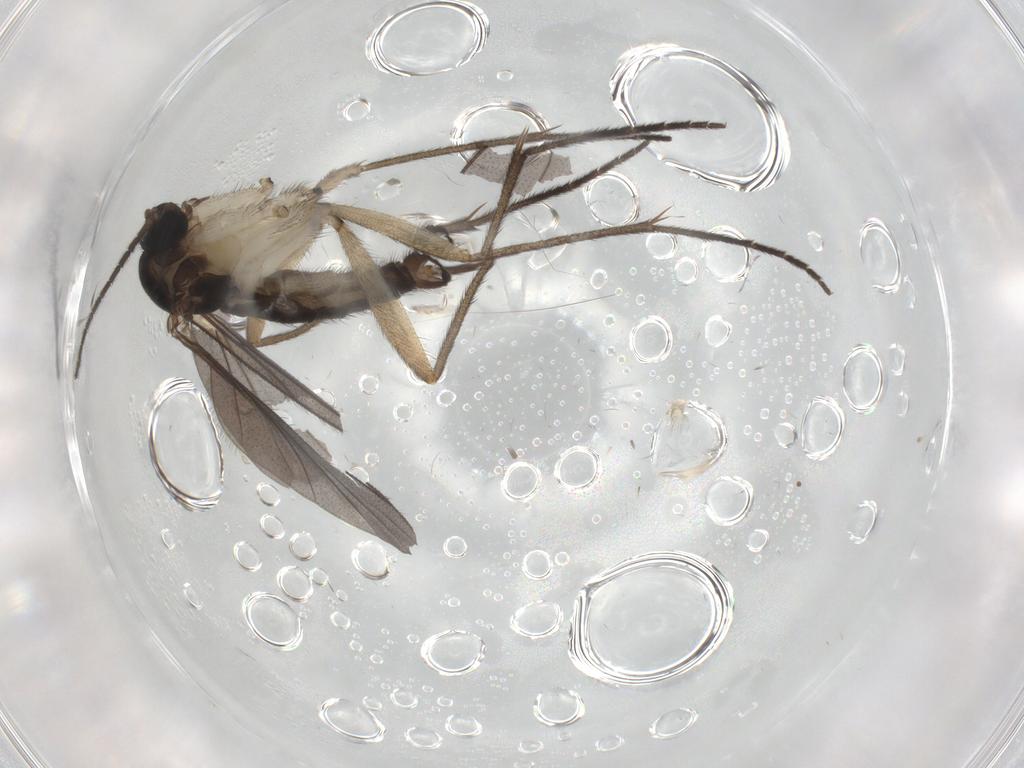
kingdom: Animalia
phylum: Arthropoda
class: Insecta
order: Diptera
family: Sciaridae
